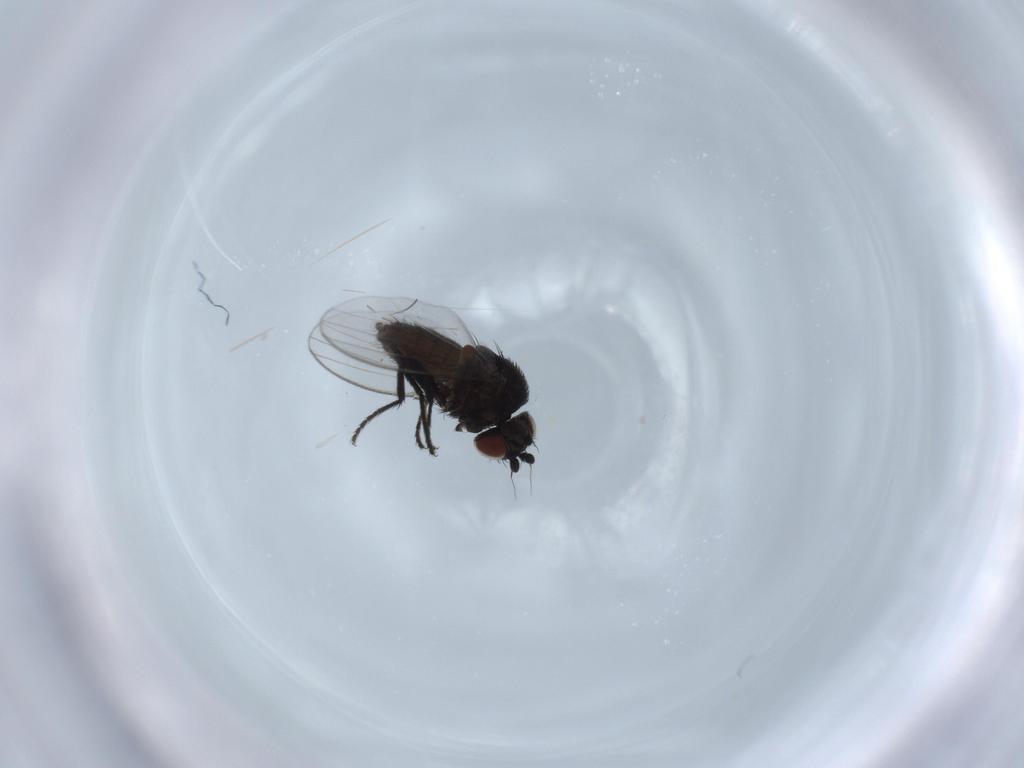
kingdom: Animalia
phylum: Arthropoda
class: Insecta
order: Diptera
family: Milichiidae
